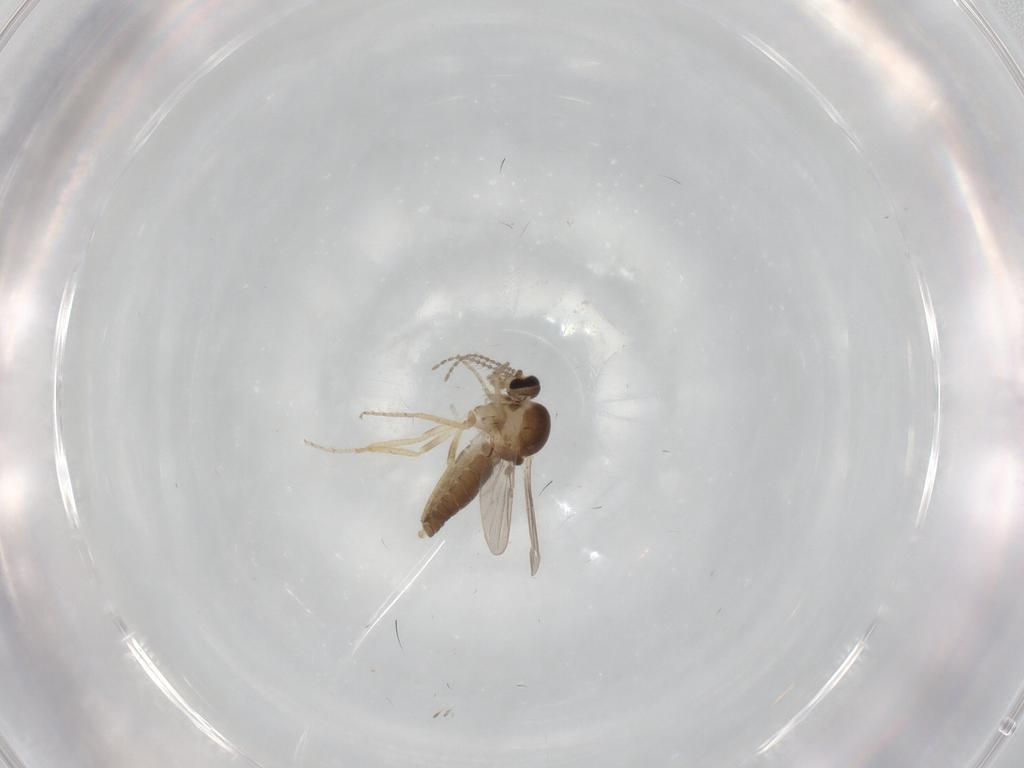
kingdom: Animalia
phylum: Arthropoda
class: Insecta
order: Diptera
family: Ceratopogonidae
